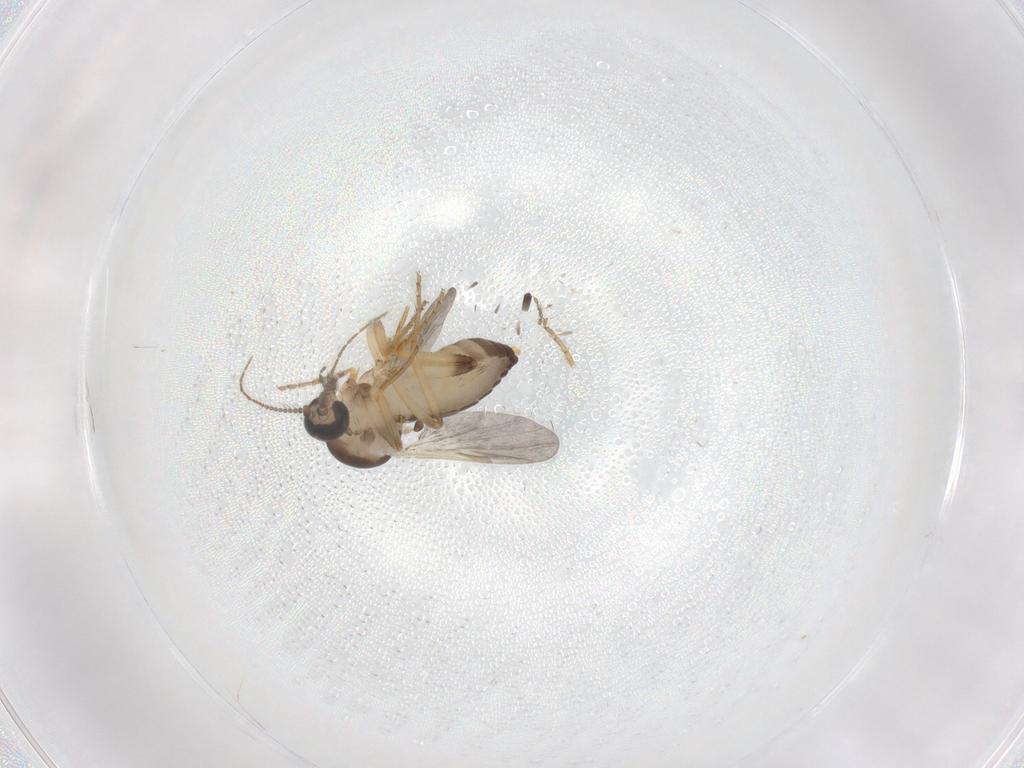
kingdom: Animalia
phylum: Arthropoda
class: Insecta
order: Diptera
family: Ceratopogonidae
